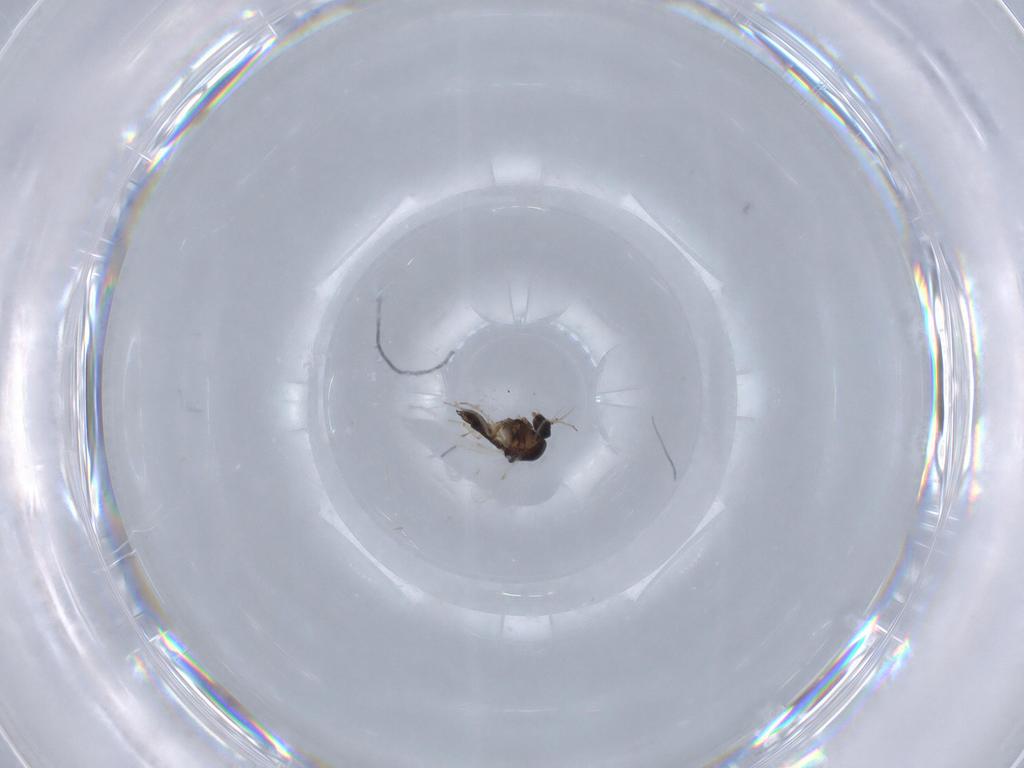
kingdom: Animalia
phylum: Arthropoda
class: Insecta
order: Diptera
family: Ceratopogonidae
